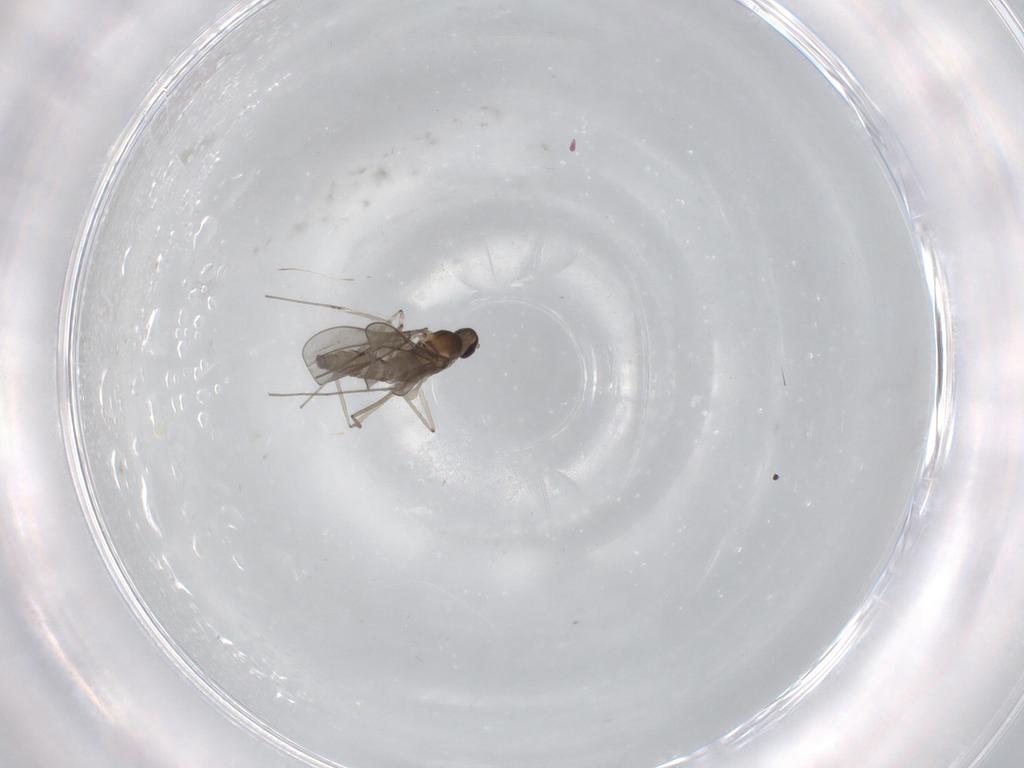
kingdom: Animalia
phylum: Arthropoda
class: Insecta
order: Diptera
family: Cecidomyiidae
